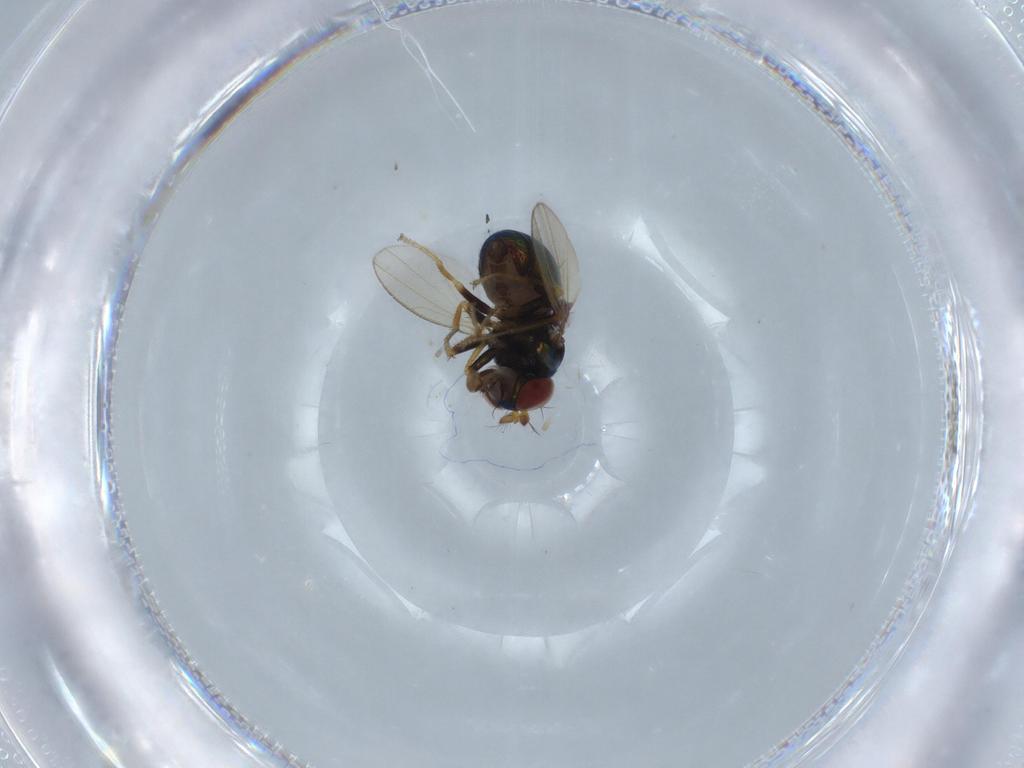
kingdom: Animalia
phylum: Arthropoda
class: Insecta
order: Diptera
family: Ephydridae
